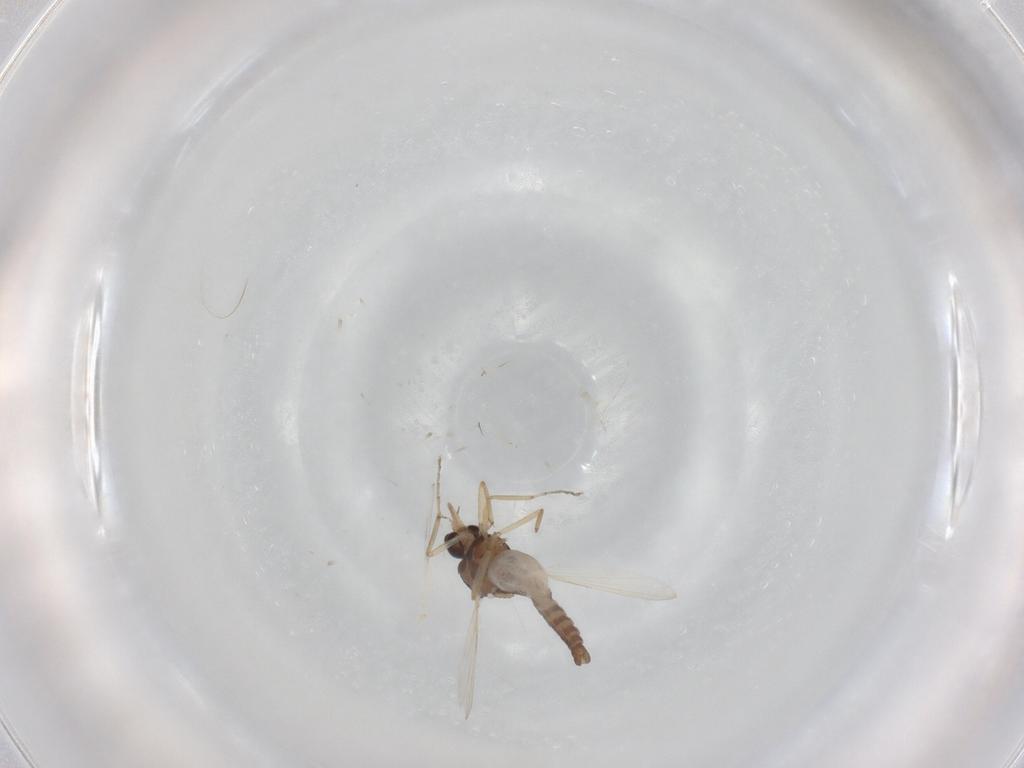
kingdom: Animalia
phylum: Arthropoda
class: Insecta
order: Diptera
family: Ceratopogonidae
